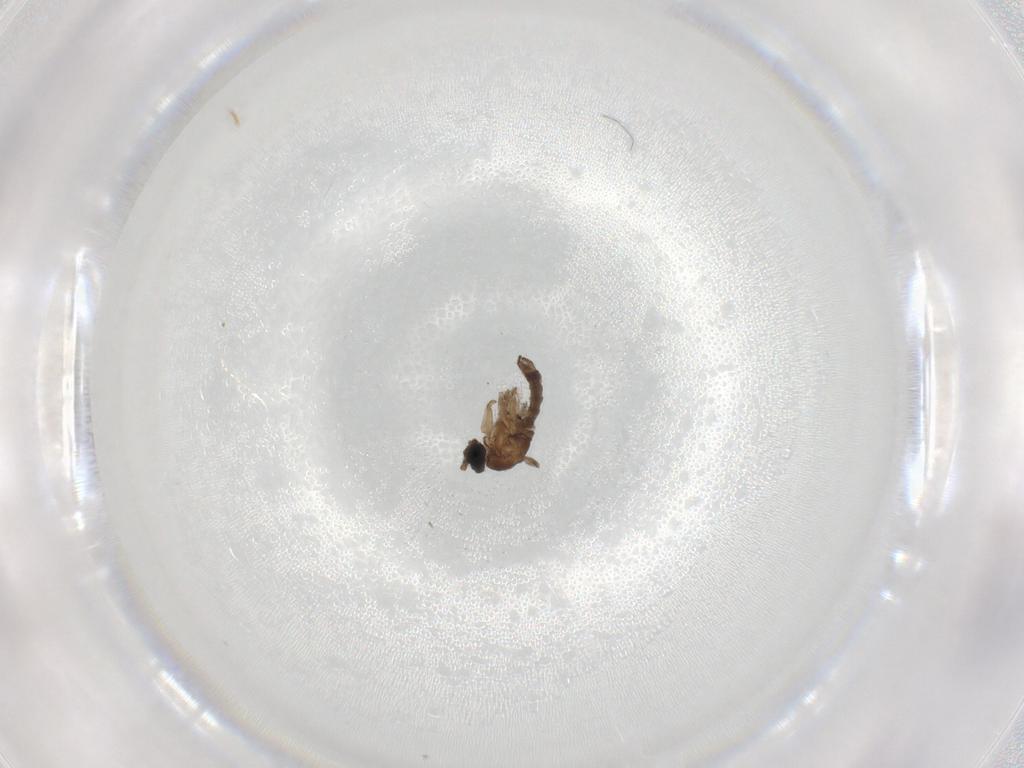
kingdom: Animalia
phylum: Arthropoda
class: Insecta
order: Diptera
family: Sciaridae
